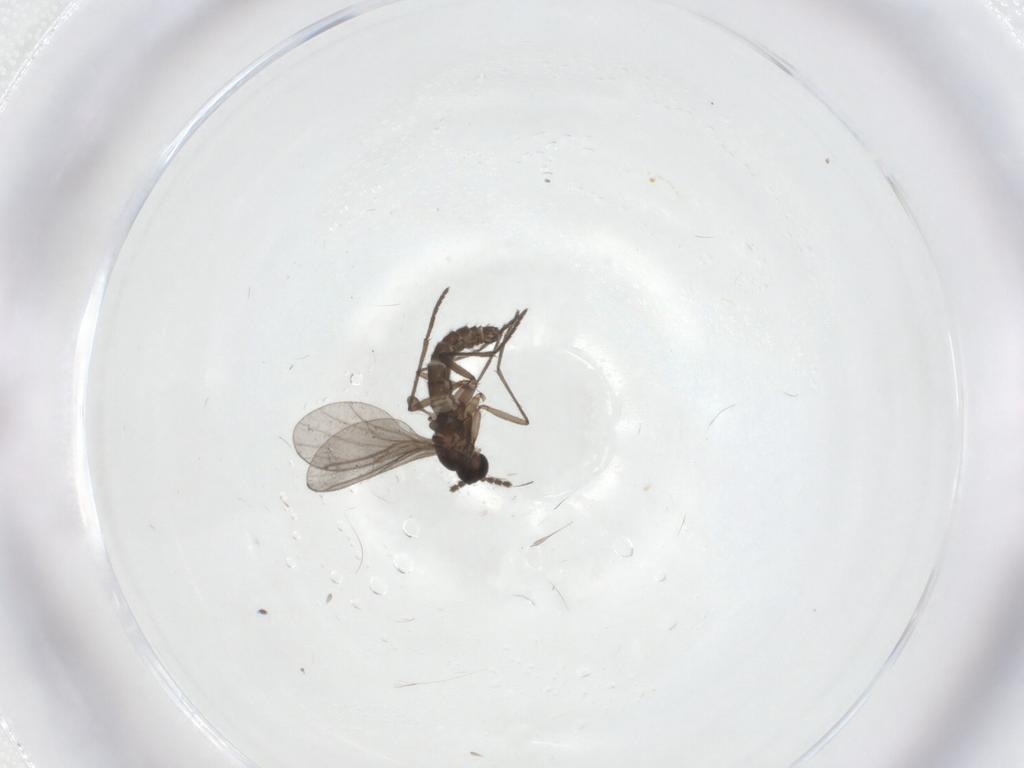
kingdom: Animalia
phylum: Arthropoda
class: Insecta
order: Diptera
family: Cecidomyiidae
